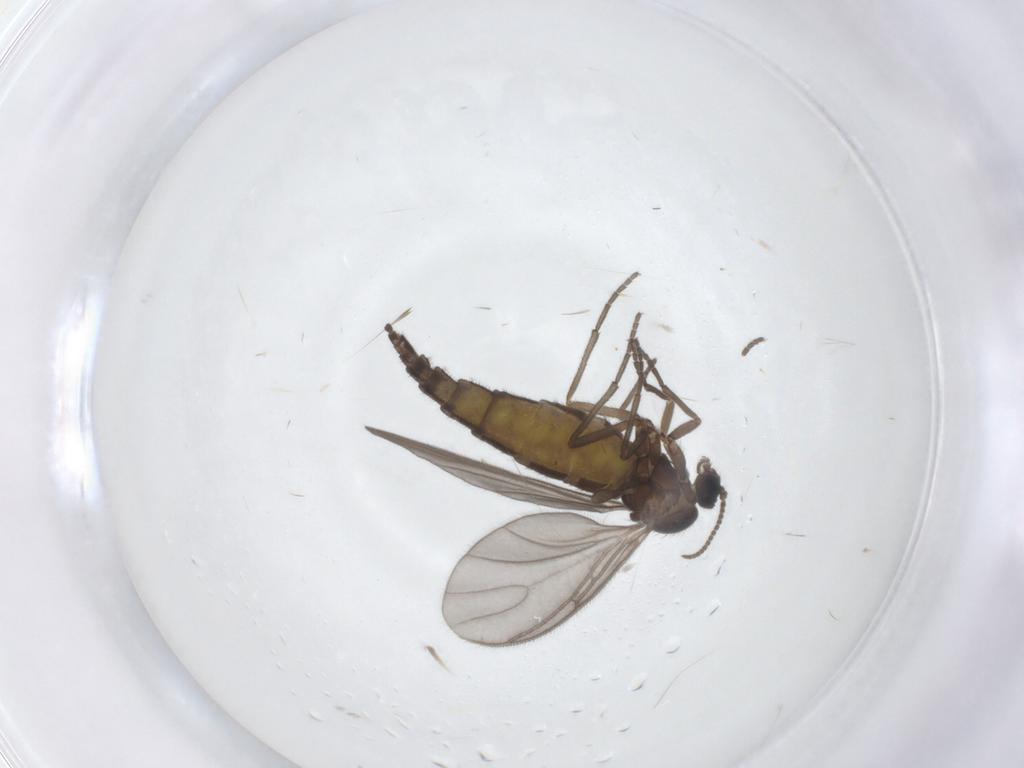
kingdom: Animalia
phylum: Arthropoda
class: Insecta
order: Diptera
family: Sciaridae
